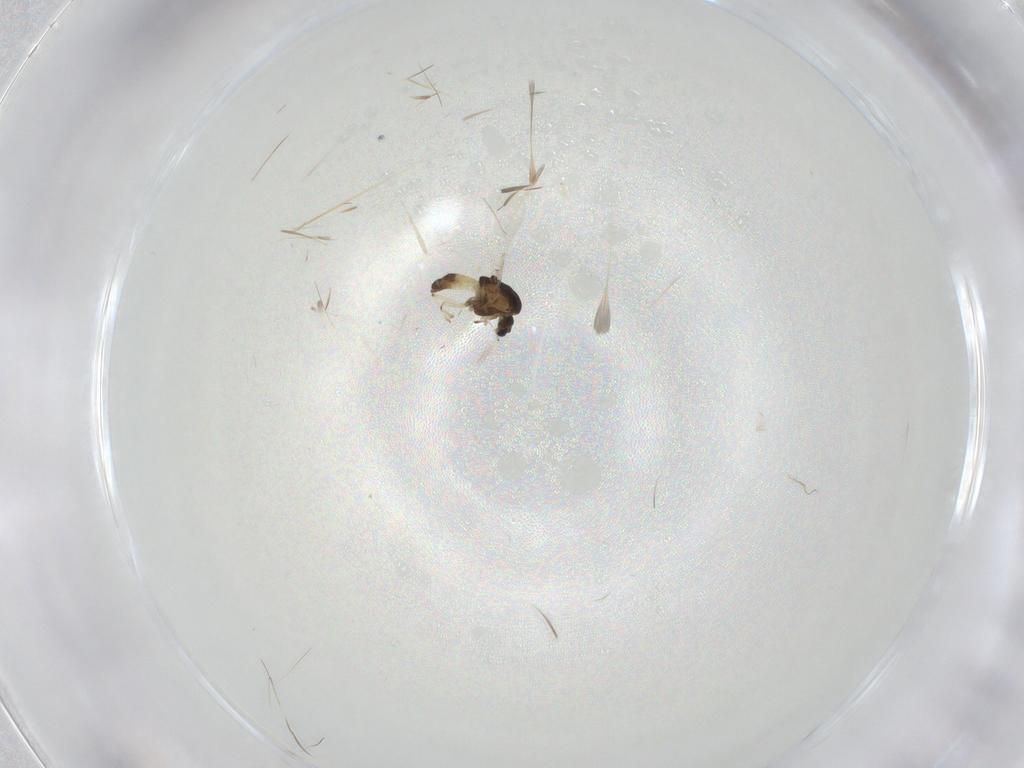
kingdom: Animalia
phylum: Arthropoda
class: Insecta
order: Diptera
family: Chironomidae
